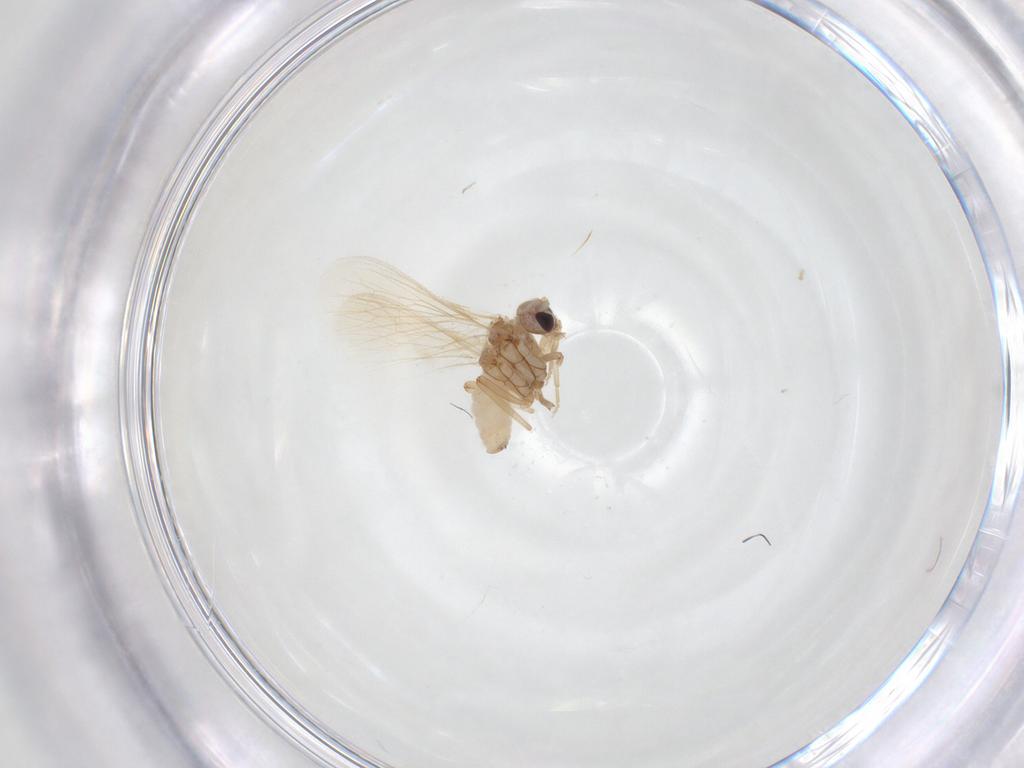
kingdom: Animalia
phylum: Arthropoda
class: Insecta
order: Neuroptera
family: Coniopterygidae
